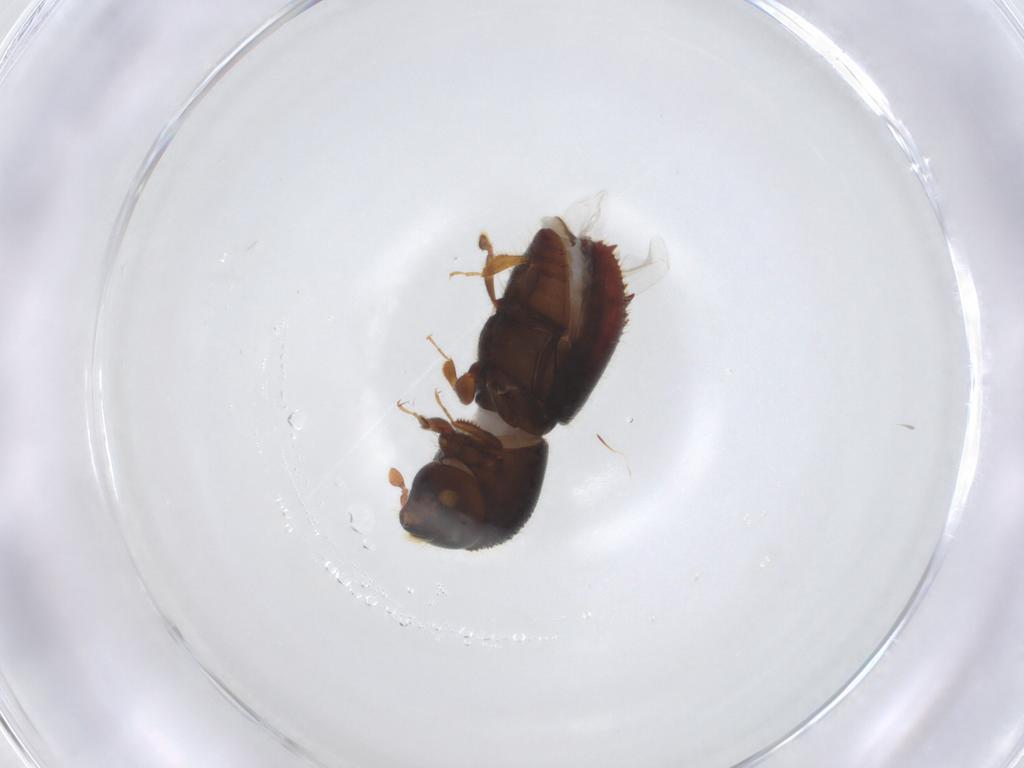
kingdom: Animalia
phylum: Arthropoda
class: Insecta
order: Coleoptera
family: Curculionidae
